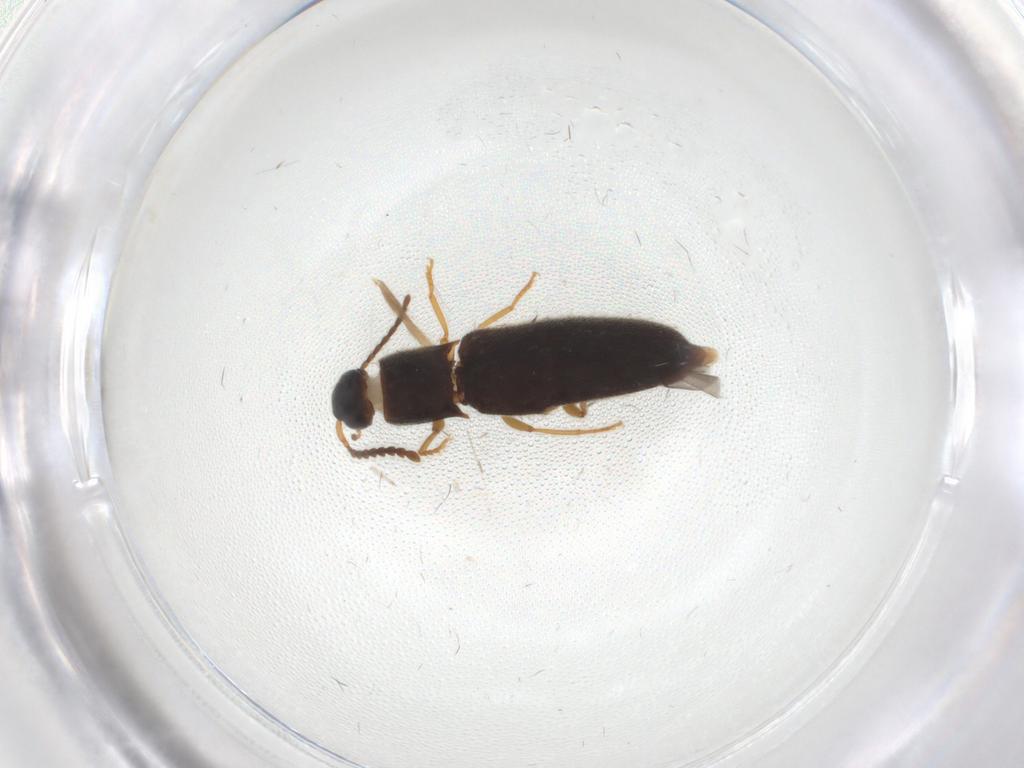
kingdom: Animalia
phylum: Arthropoda
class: Insecta
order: Coleoptera
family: Elateridae
